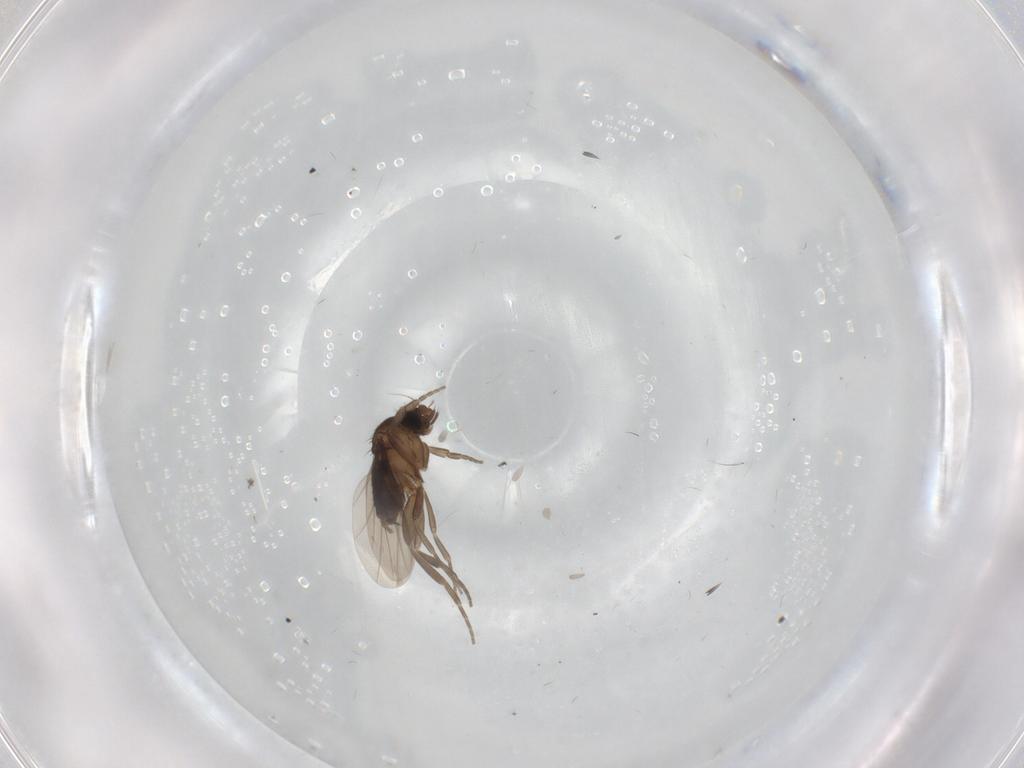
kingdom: Animalia
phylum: Arthropoda
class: Insecta
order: Diptera
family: Cecidomyiidae
